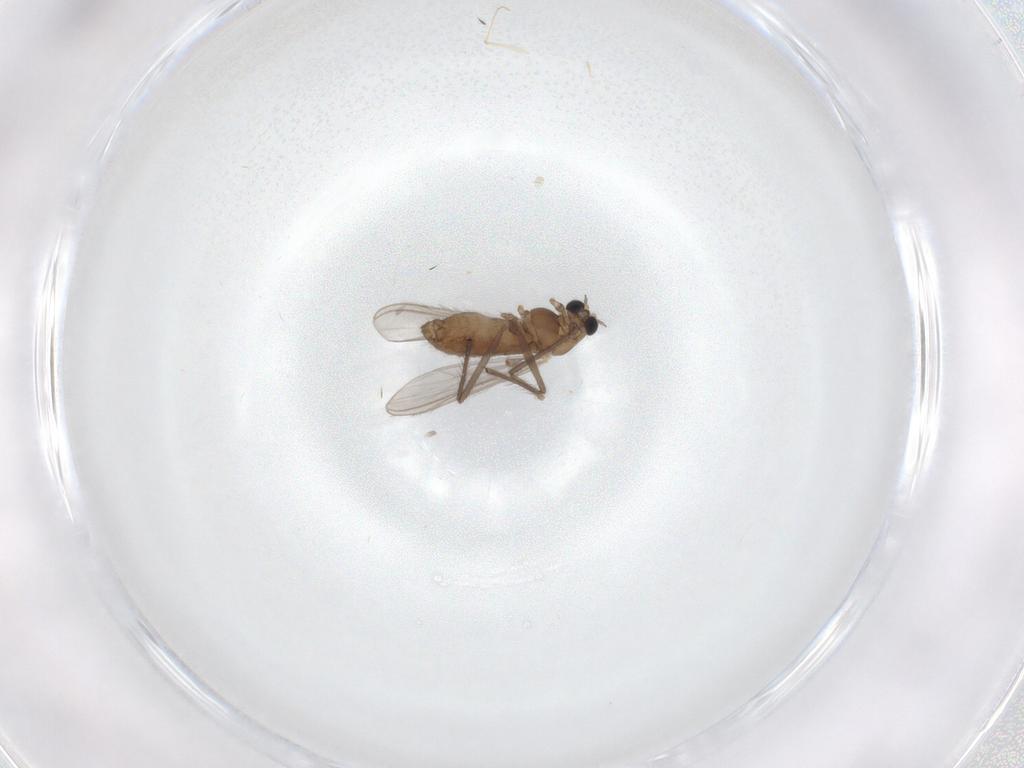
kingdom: Animalia
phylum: Arthropoda
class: Insecta
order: Diptera
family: Chironomidae
